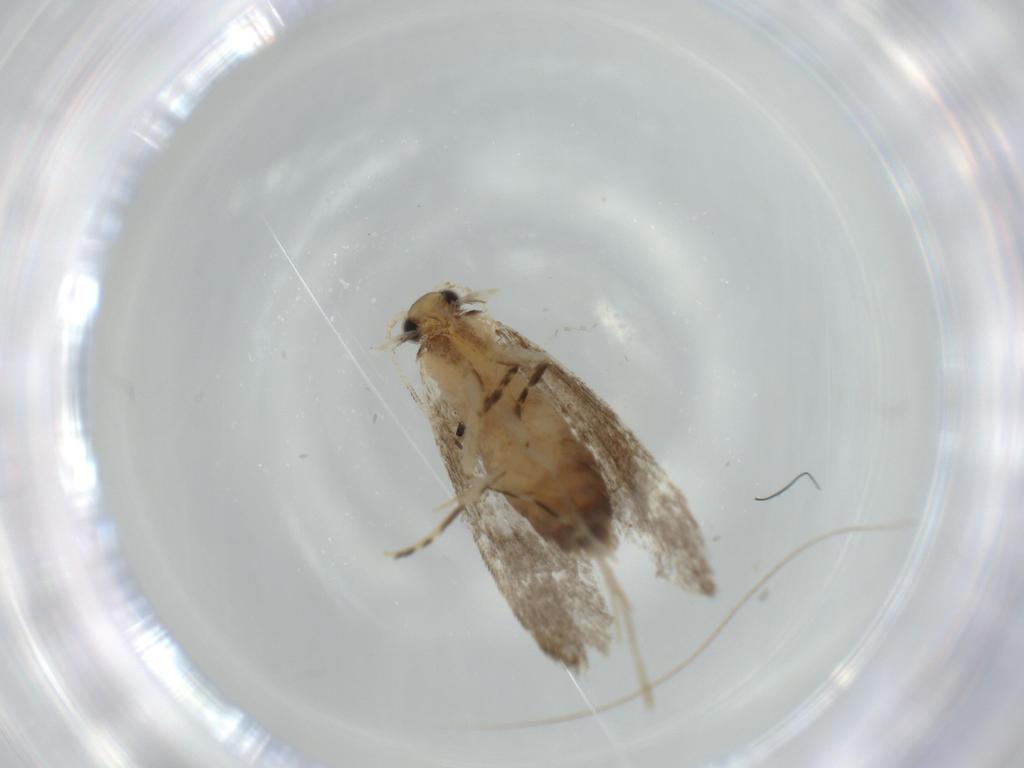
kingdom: Animalia
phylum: Arthropoda
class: Insecta
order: Lepidoptera
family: Tineidae
